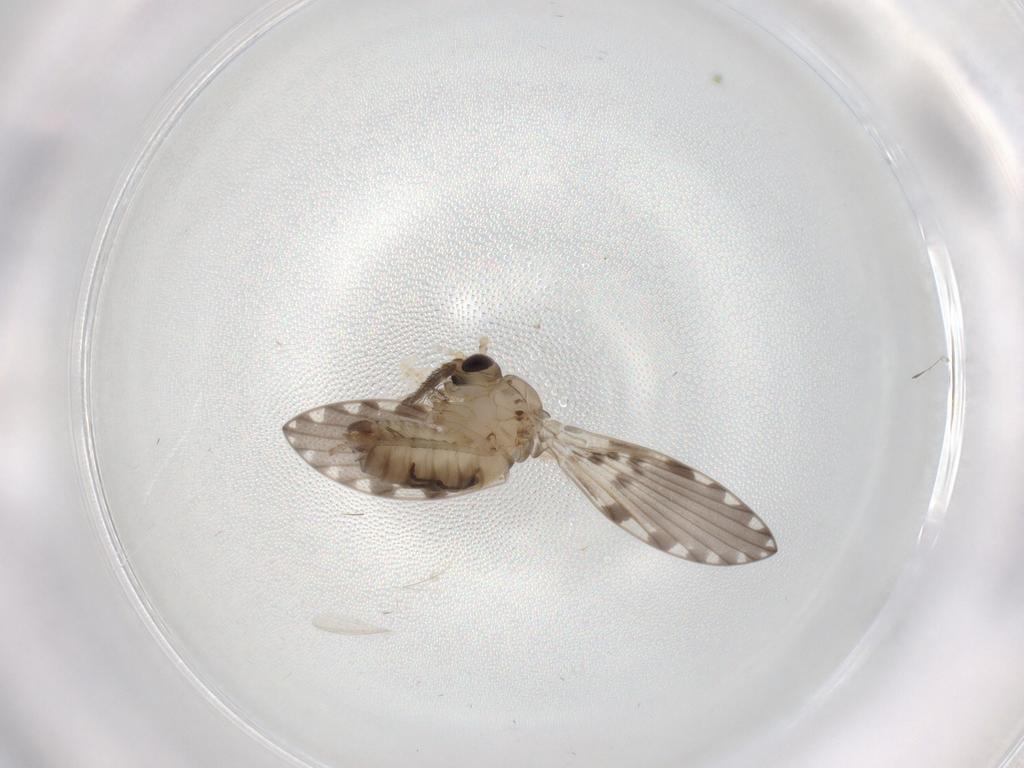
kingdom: Animalia
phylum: Arthropoda
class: Insecta
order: Diptera
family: Psychodidae
